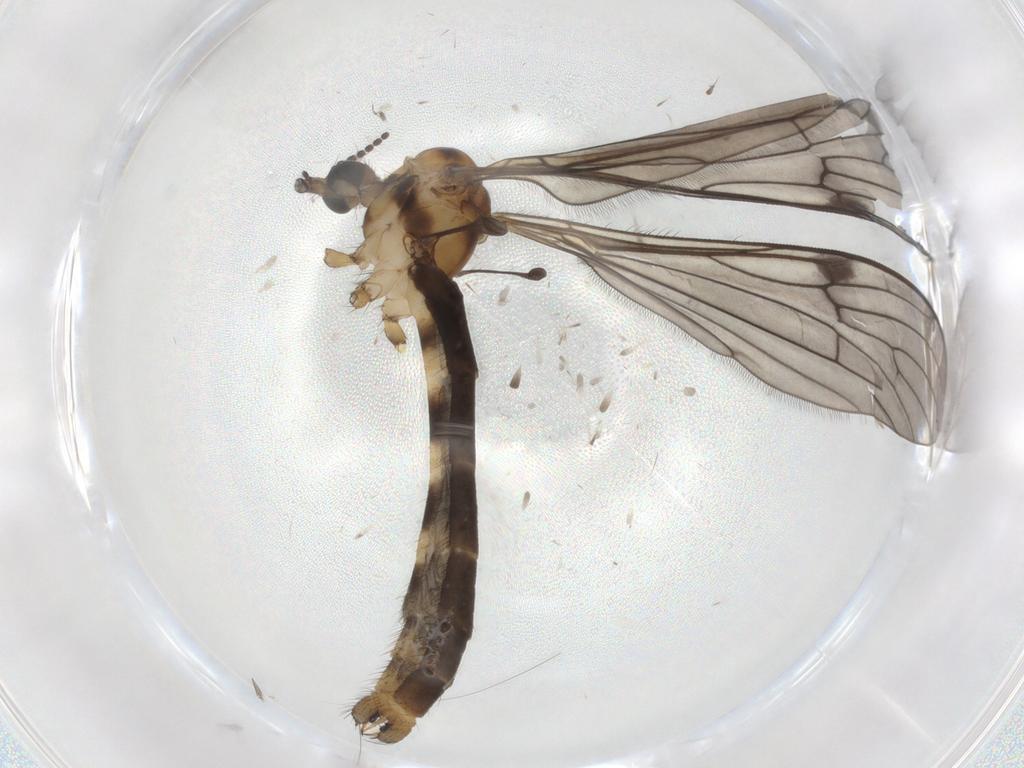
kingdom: Animalia
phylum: Arthropoda
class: Insecta
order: Diptera
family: Limoniidae
